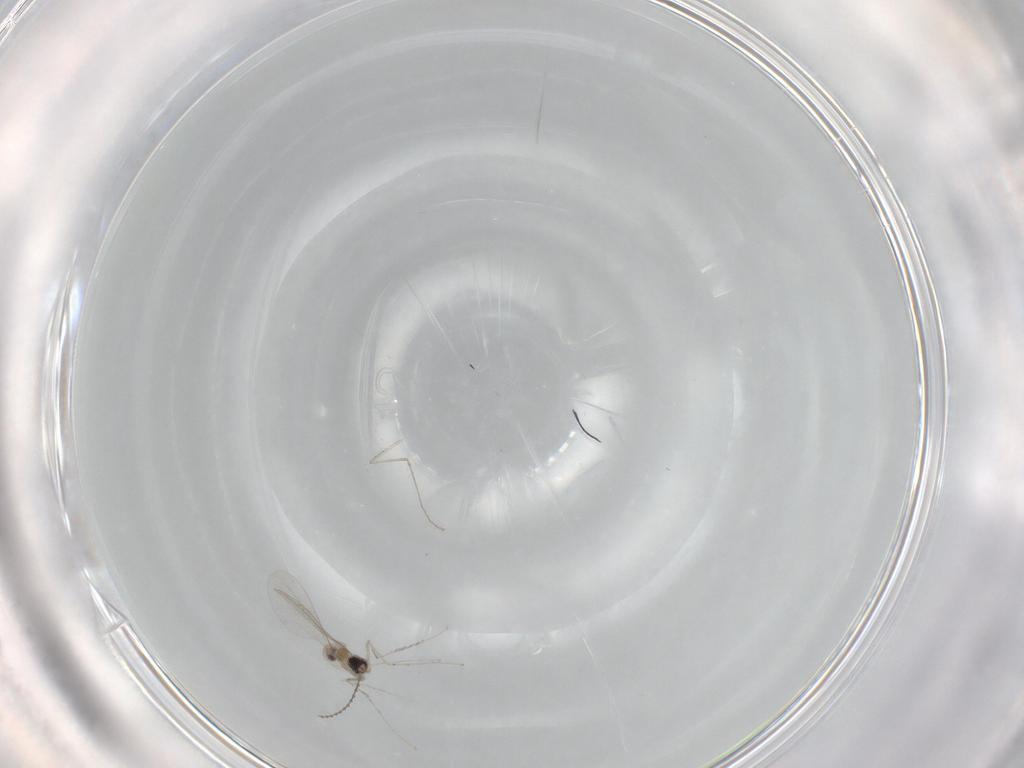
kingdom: Animalia
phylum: Arthropoda
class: Insecta
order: Diptera
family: Cecidomyiidae
